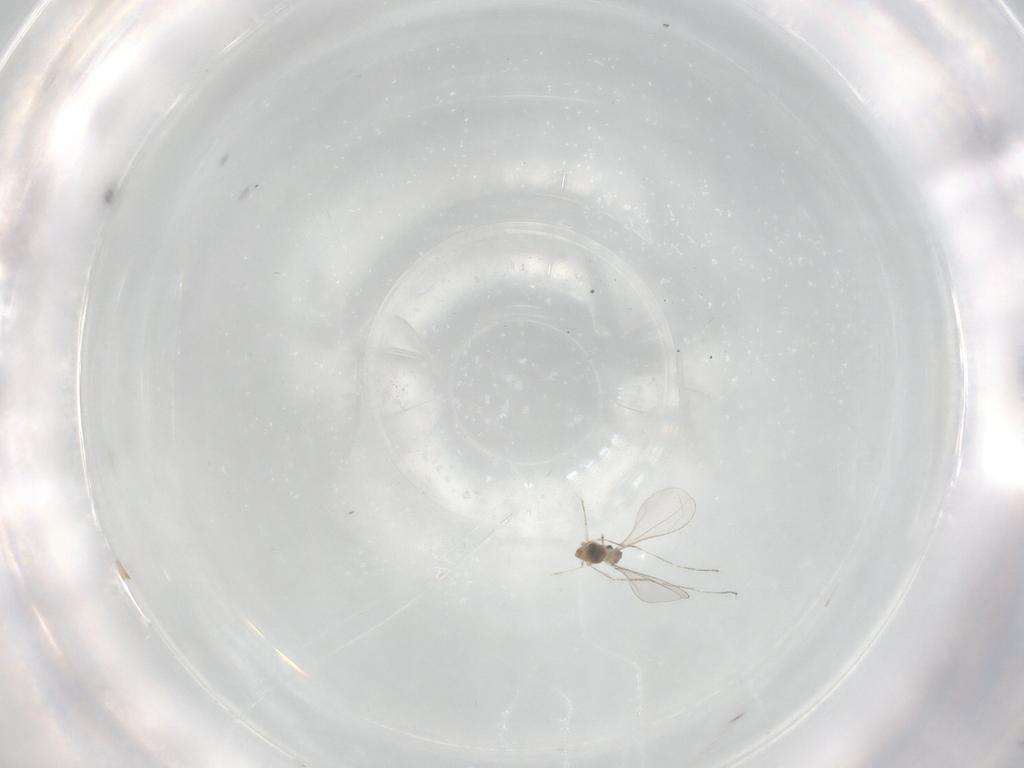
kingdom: Animalia
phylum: Arthropoda
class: Insecta
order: Diptera
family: Cecidomyiidae
